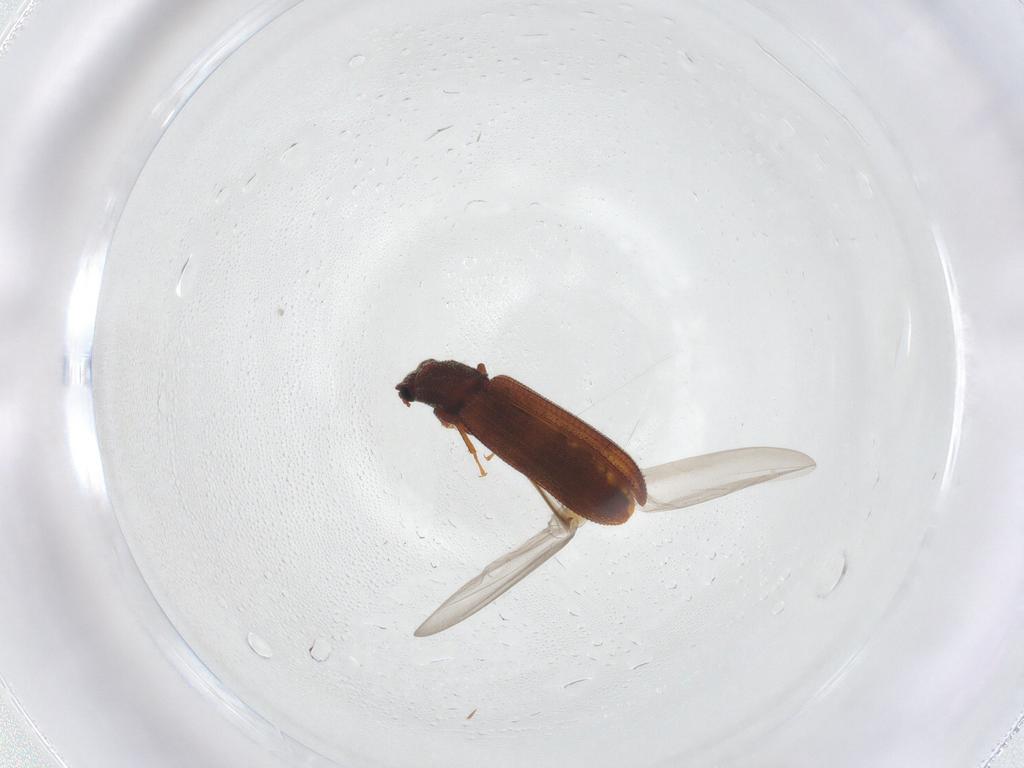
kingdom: Animalia
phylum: Arthropoda
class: Insecta
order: Coleoptera
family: Zopheridae
